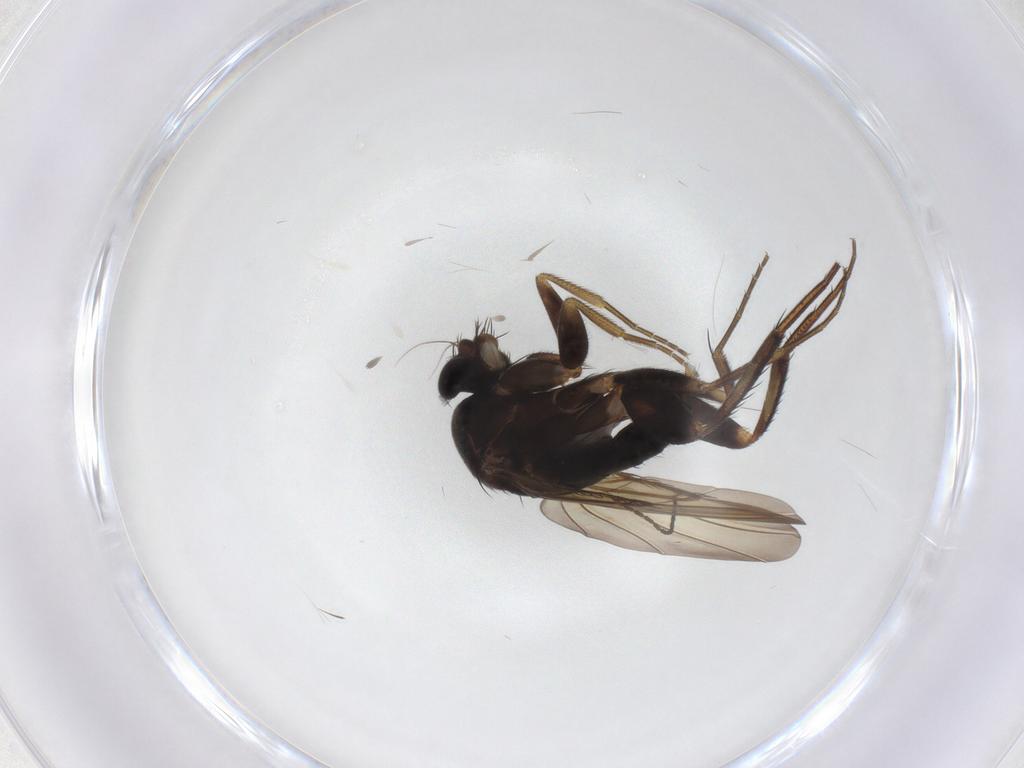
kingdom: Animalia
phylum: Arthropoda
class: Insecta
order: Diptera
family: Phoridae
